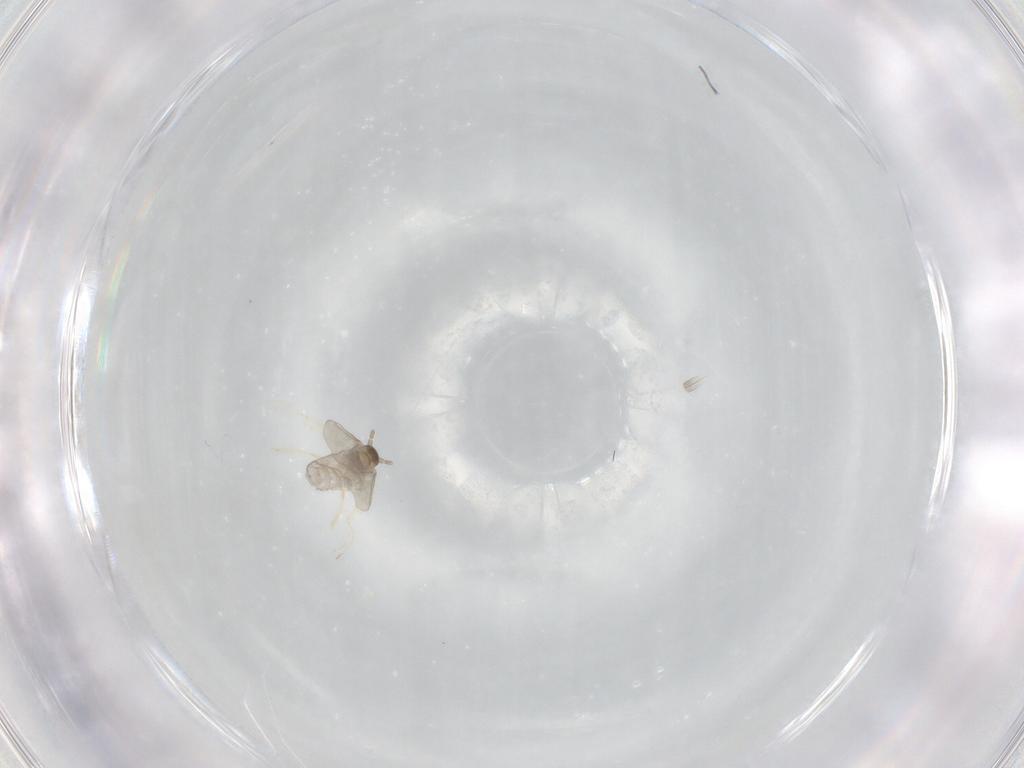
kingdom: Animalia
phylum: Arthropoda
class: Insecta
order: Diptera
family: Cecidomyiidae
